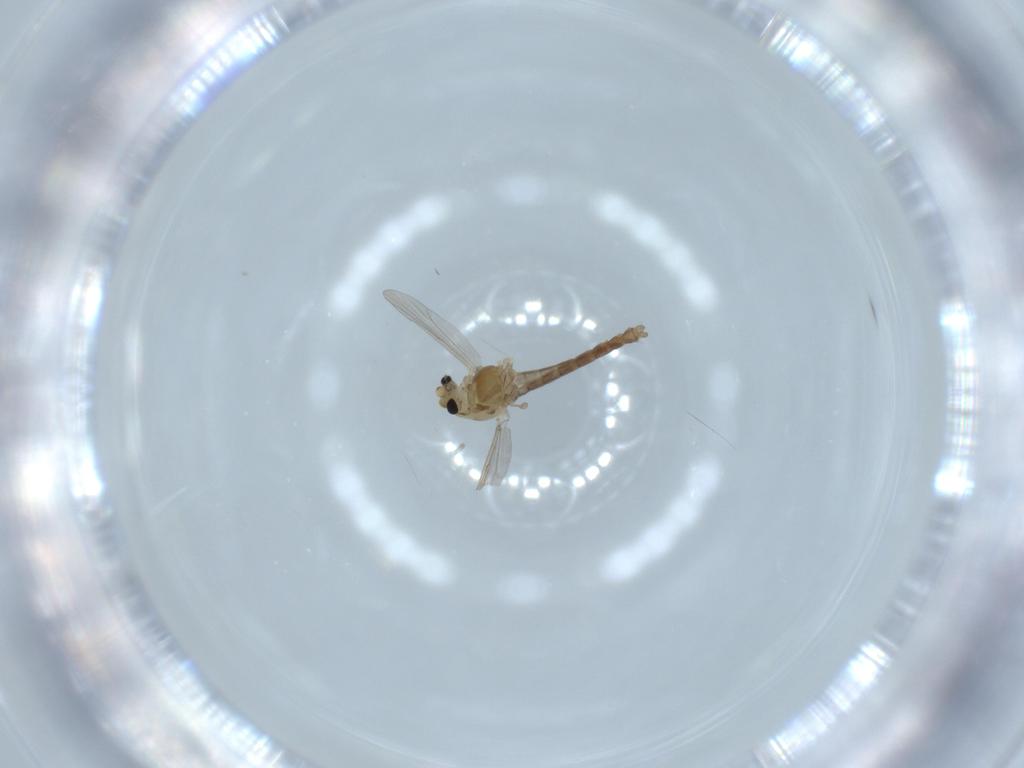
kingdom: Animalia
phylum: Arthropoda
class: Insecta
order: Diptera
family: Chironomidae
